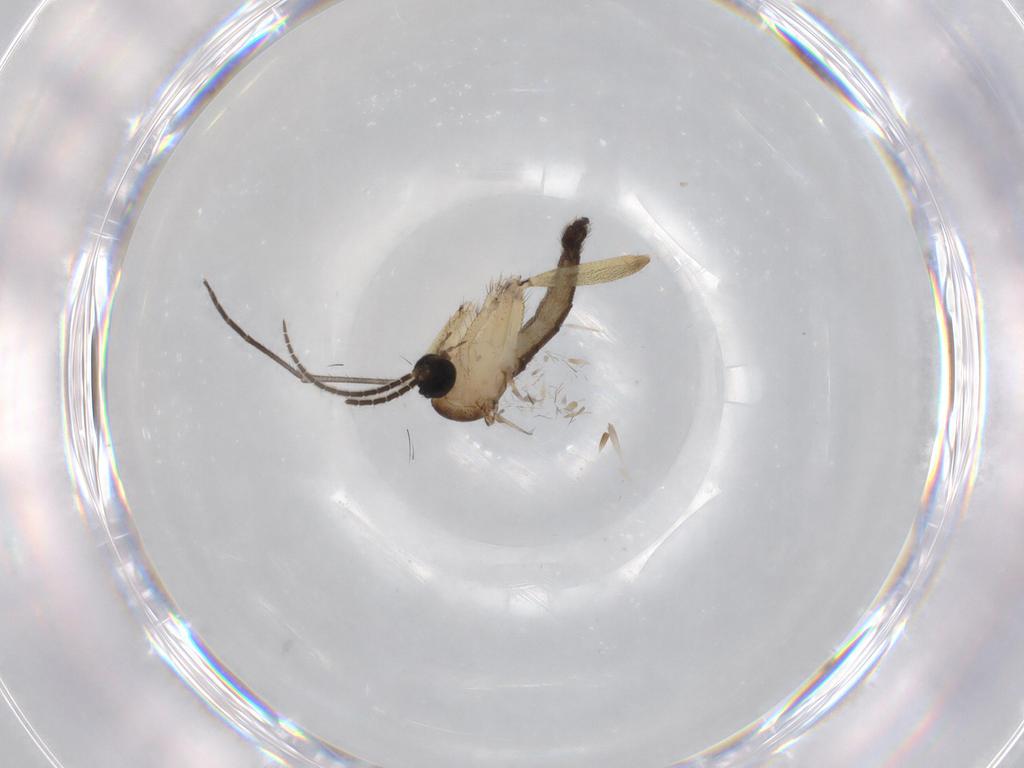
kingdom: Animalia
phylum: Arthropoda
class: Insecta
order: Diptera
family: Sciaridae
